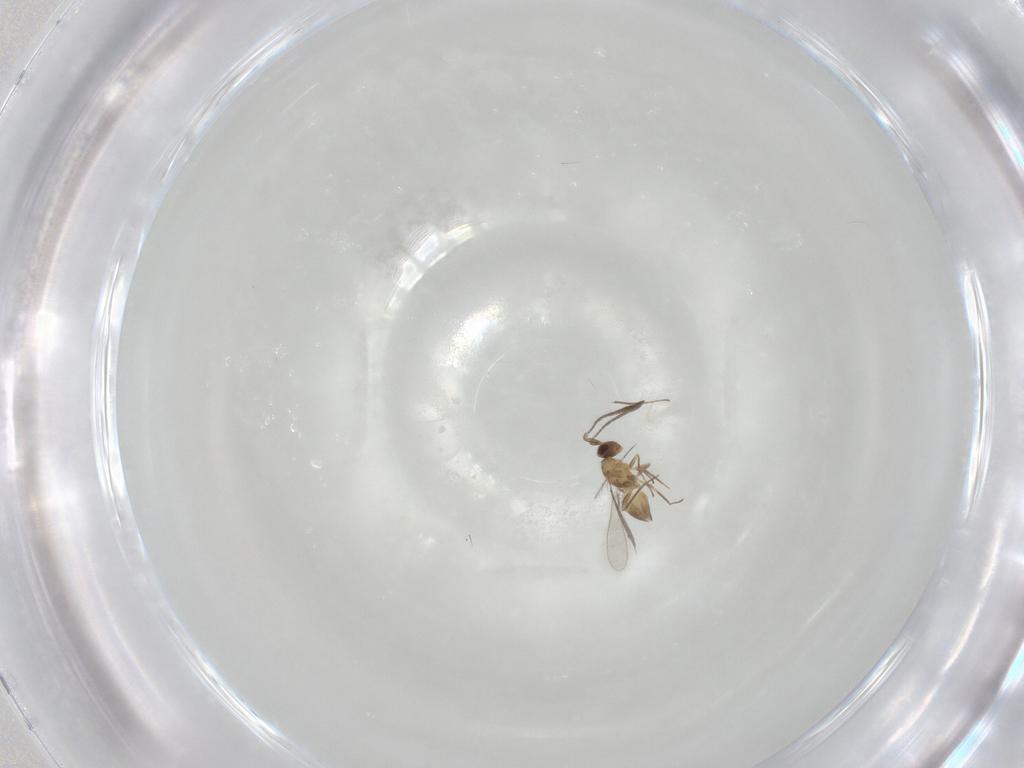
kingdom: Animalia
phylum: Arthropoda
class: Insecta
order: Hymenoptera
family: Mymaridae
